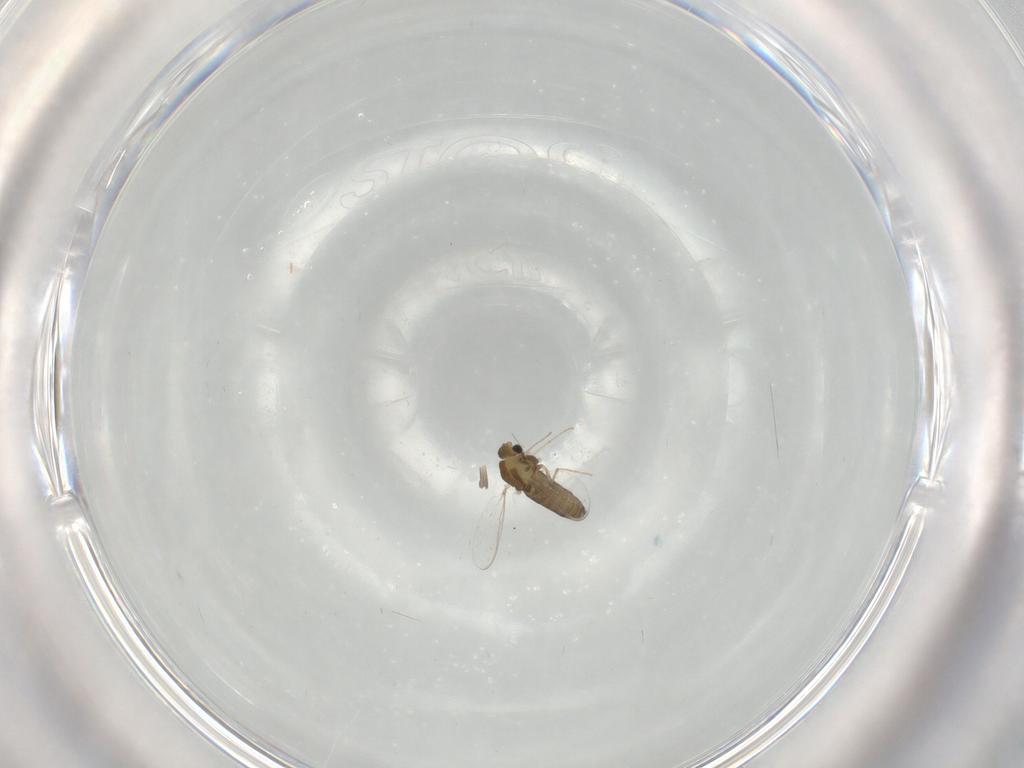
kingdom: Animalia
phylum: Arthropoda
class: Insecta
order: Diptera
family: Chironomidae
